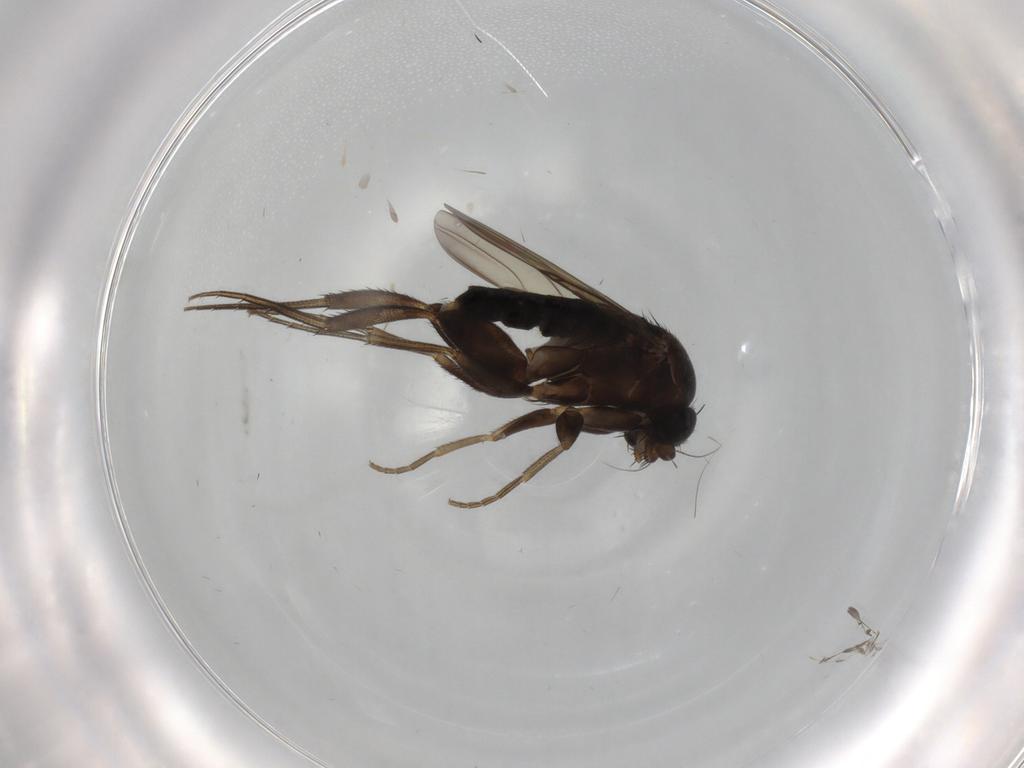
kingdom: Animalia
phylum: Arthropoda
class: Insecta
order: Diptera
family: Phoridae
